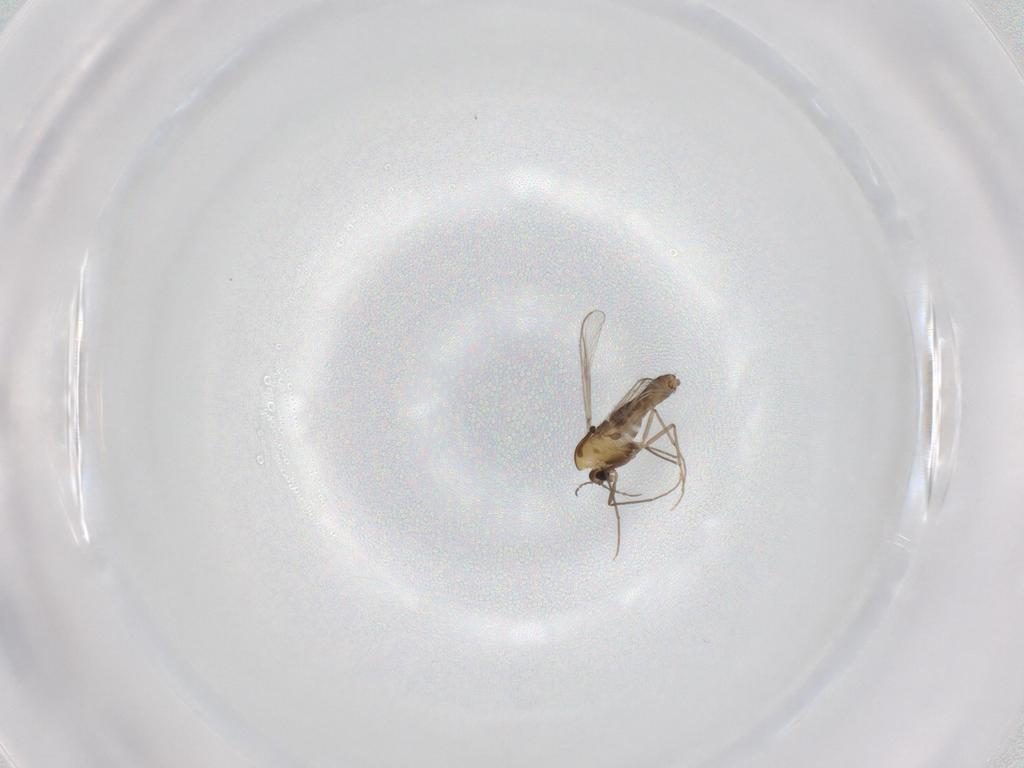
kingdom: Animalia
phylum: Arthropoda
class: Insecta
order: Diptera
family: Chironomidae
